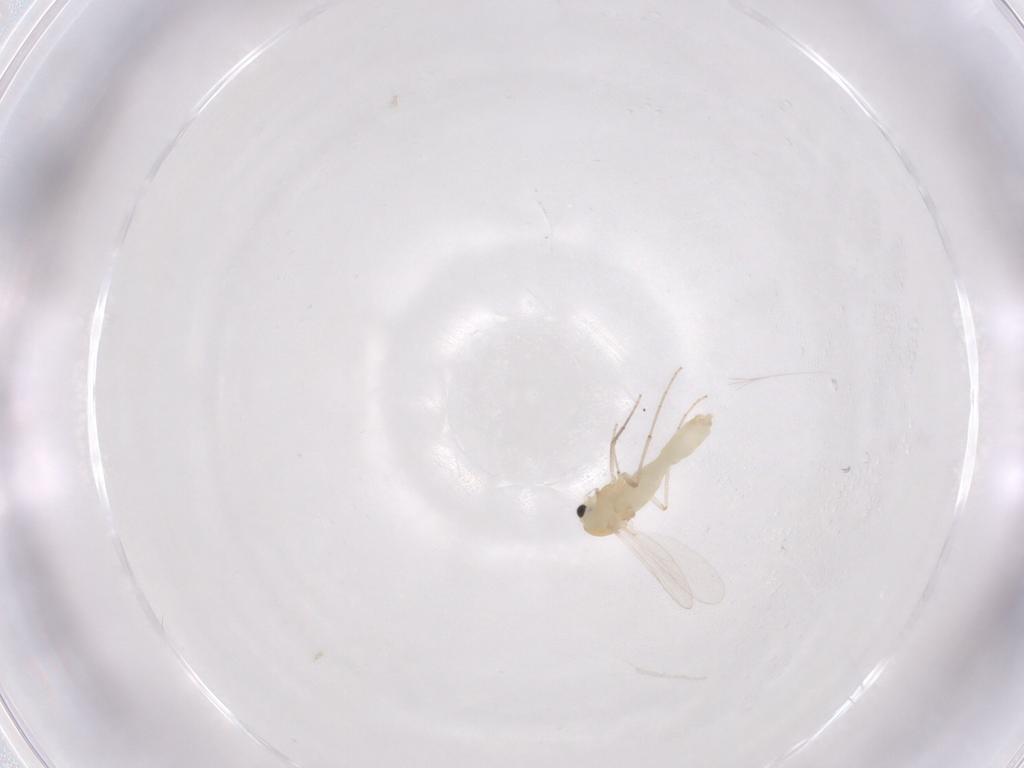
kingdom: Animalia
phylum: Arthropoda
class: Insecta
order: Diptera
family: Chironomidae
